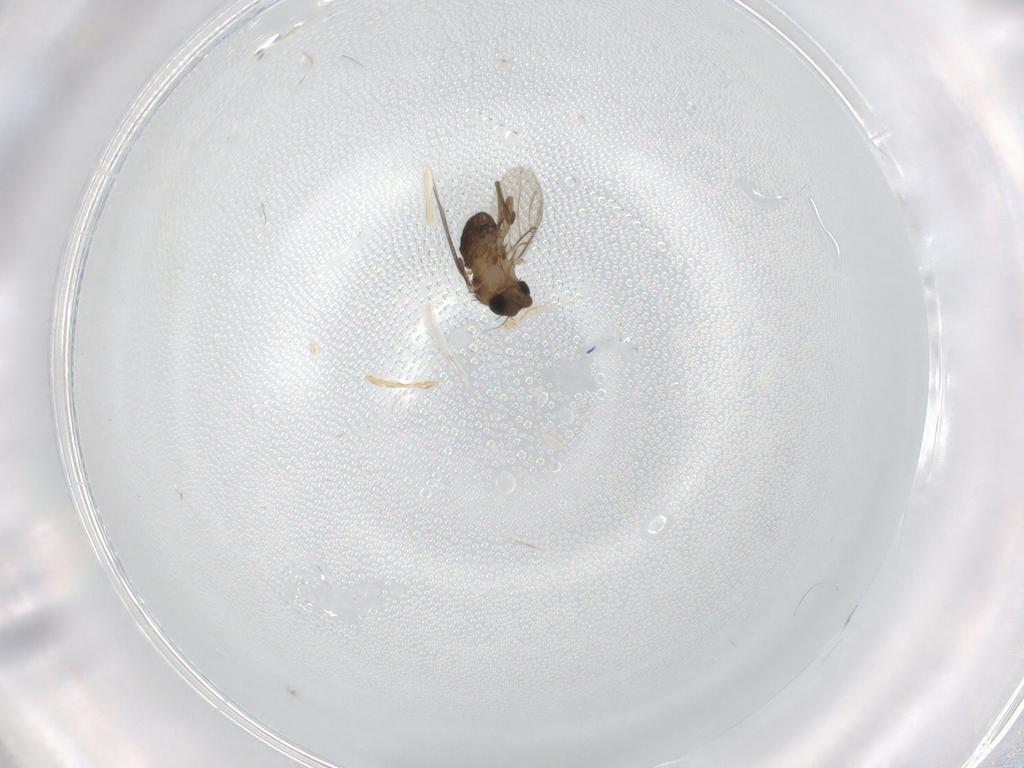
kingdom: Animalia
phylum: Arthropoda
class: Insecta
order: Diptera
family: Phoridae
